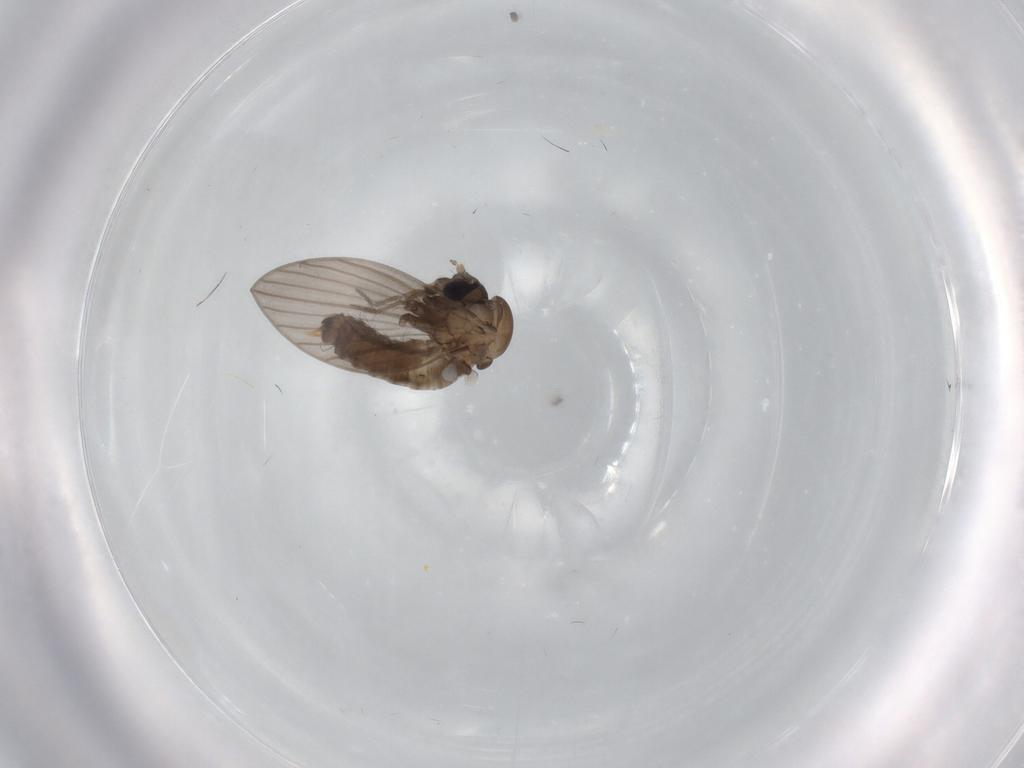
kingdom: Animalia
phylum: Arthropoda
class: Insecta
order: Diptera
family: Psychodidae
